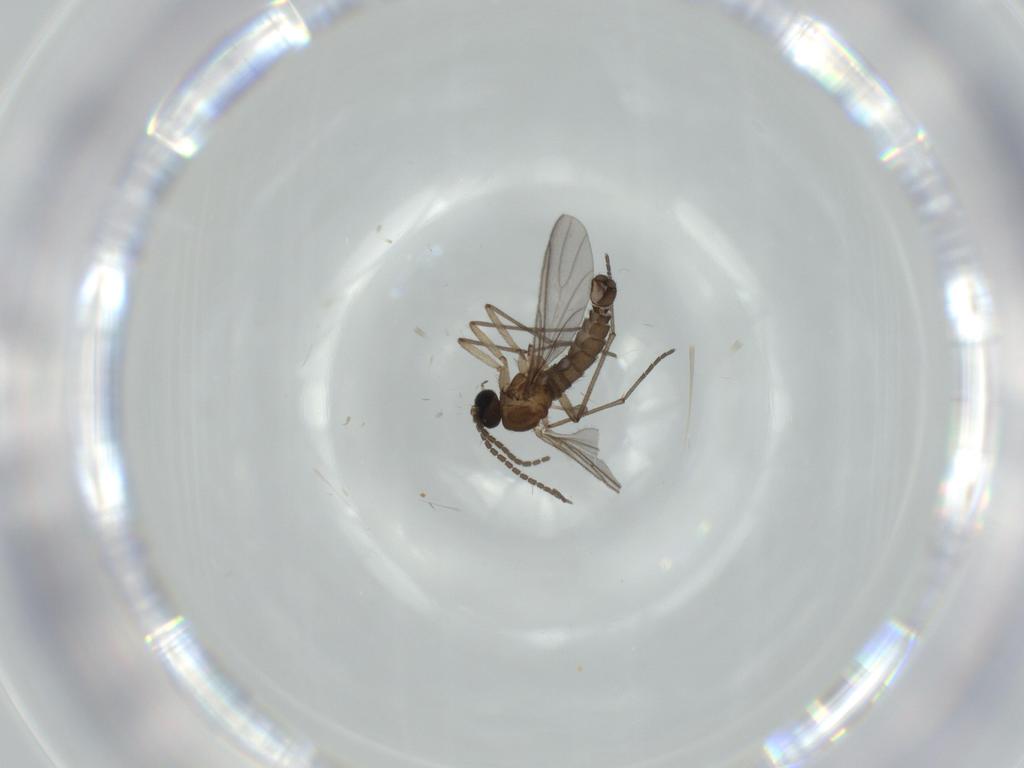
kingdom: Animalia
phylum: Arthropoda
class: Insecta
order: Diptera
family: Sciaridae
